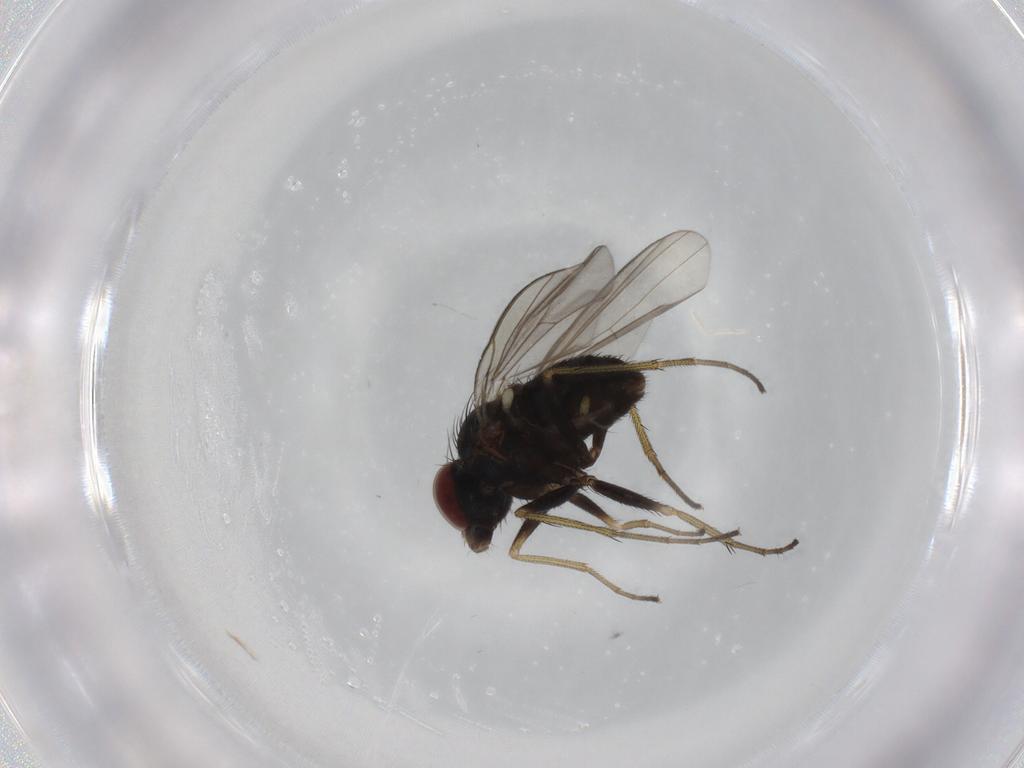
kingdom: Animalia
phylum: Arthropoda
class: Insecta
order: Diptera
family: Dolichopodidae
